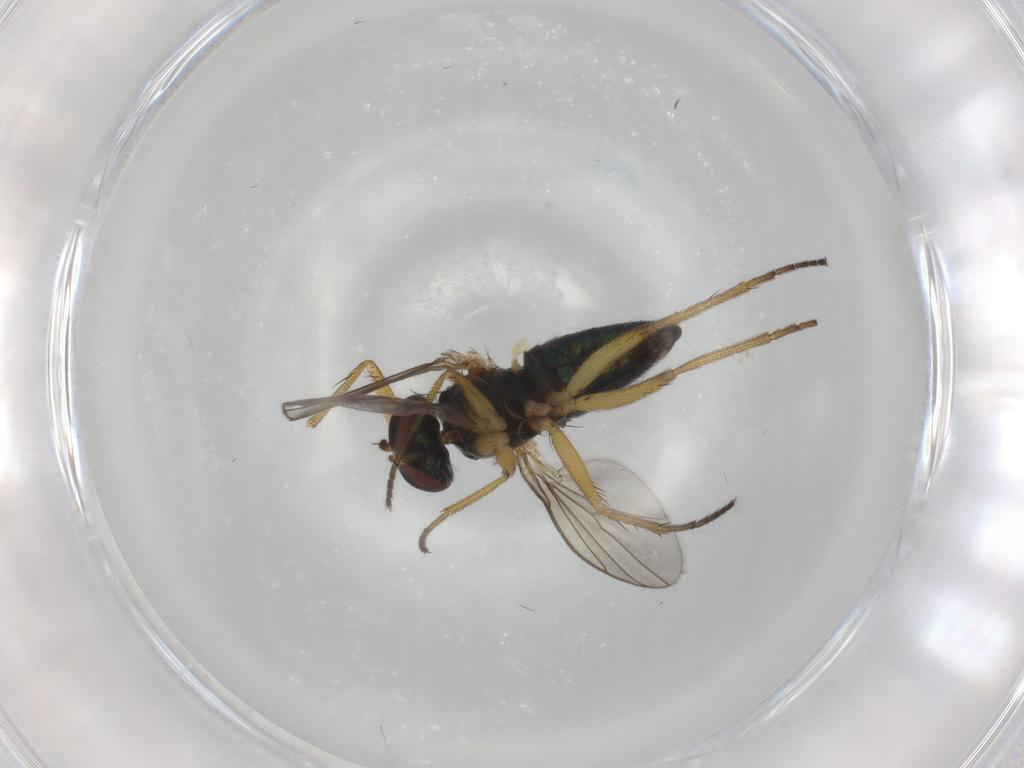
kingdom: Animalia
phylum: Arthropoda
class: Insecta
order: Diptera
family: Dolichopodidae
